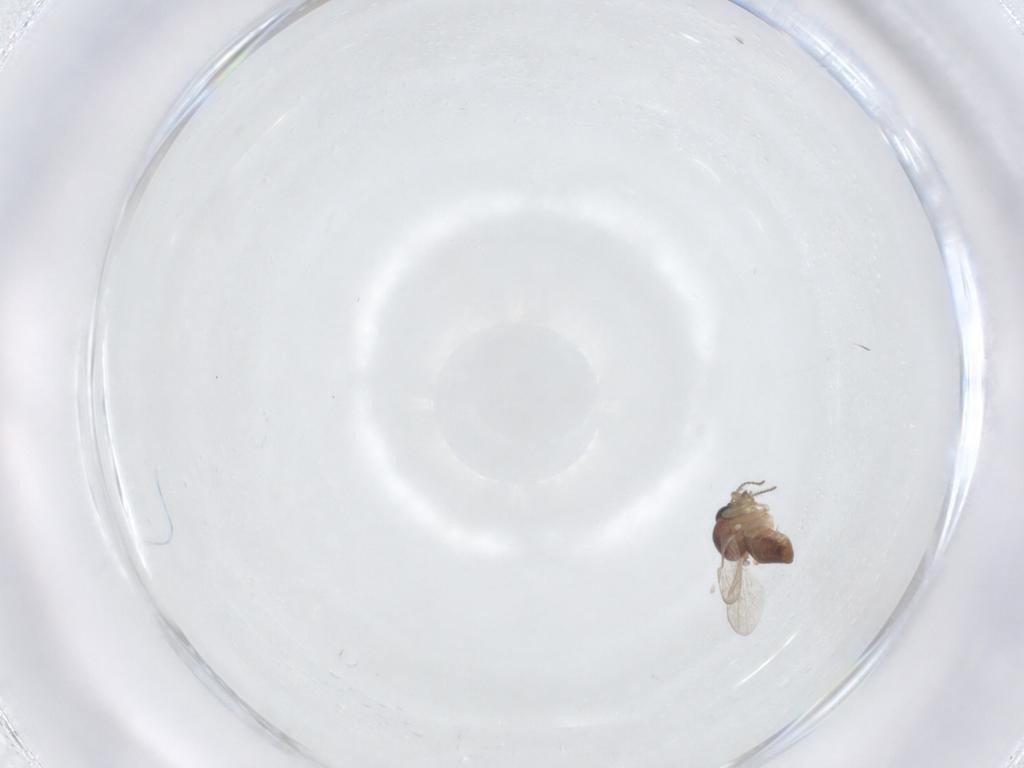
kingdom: Animalia
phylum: Arthropoda
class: Insecta
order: Diptera
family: Ceratopogonidae
